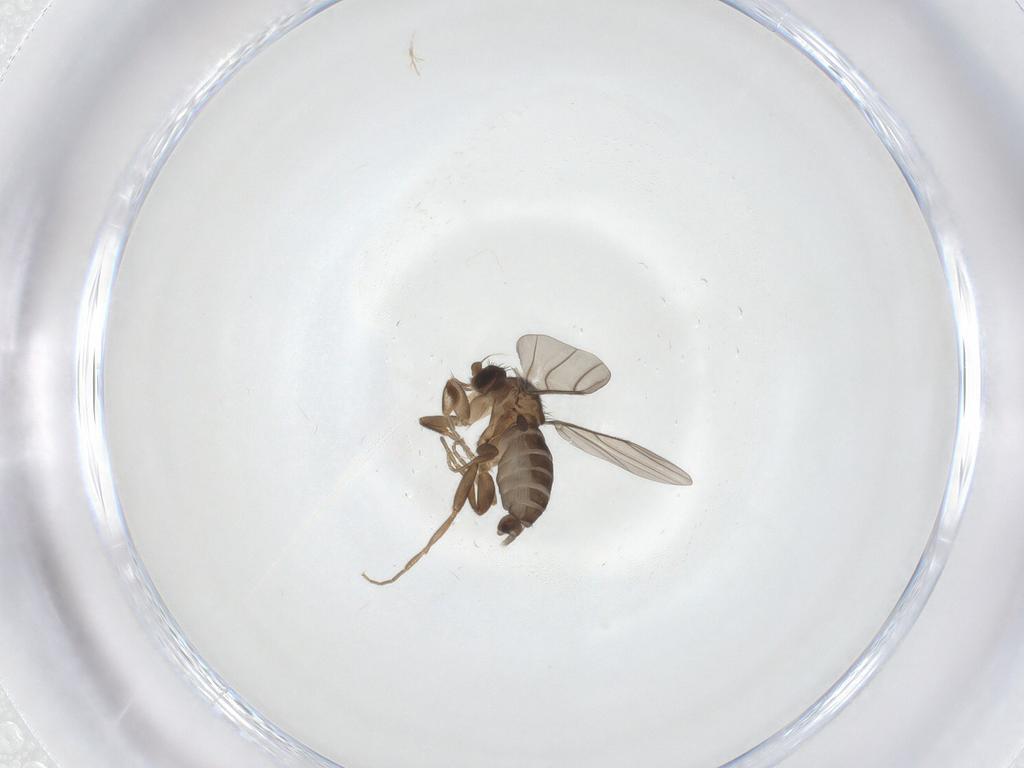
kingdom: Animalia
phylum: Arthropoda
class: Insecta
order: Diptera
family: Phoridae
